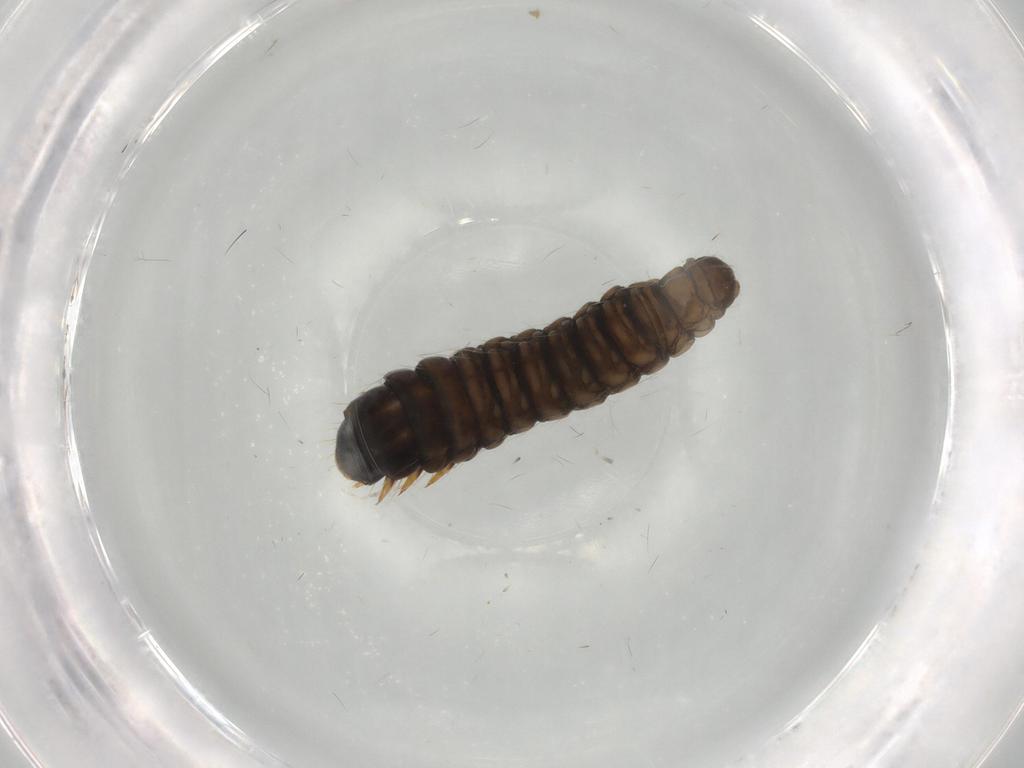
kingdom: Animalia
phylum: Arthropoda
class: Insecta
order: Lepidoptera
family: Psychidae
